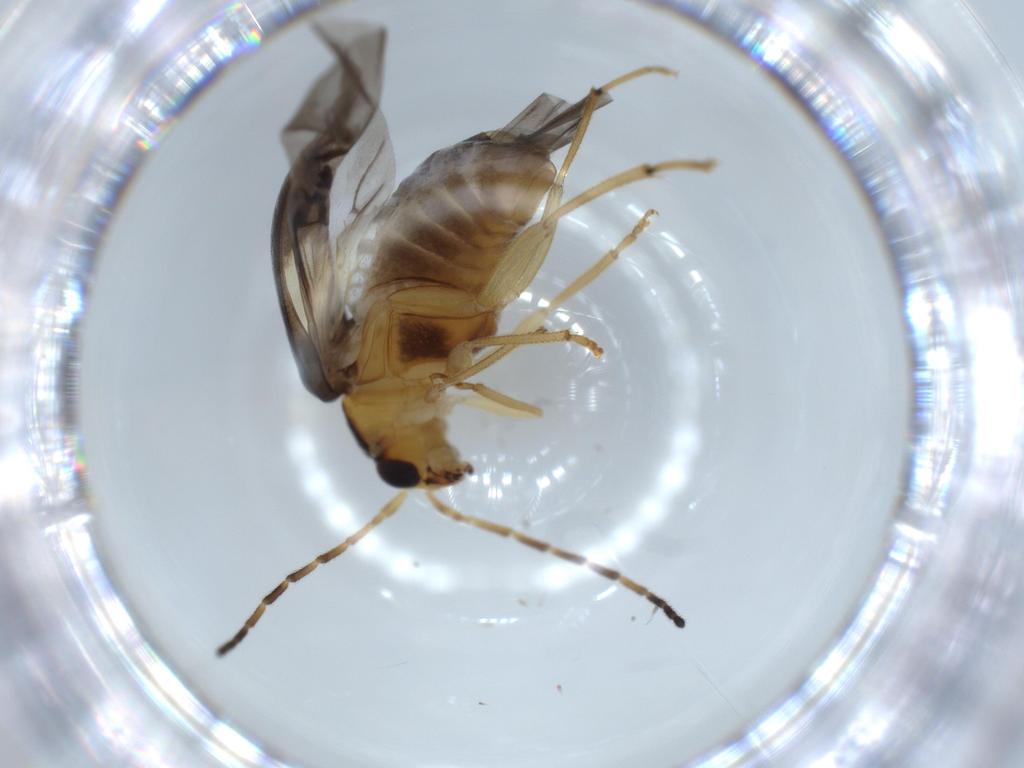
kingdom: Animalia
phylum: Arthropoda
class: Insecta
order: Coleoptera
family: Chrysomelidae
